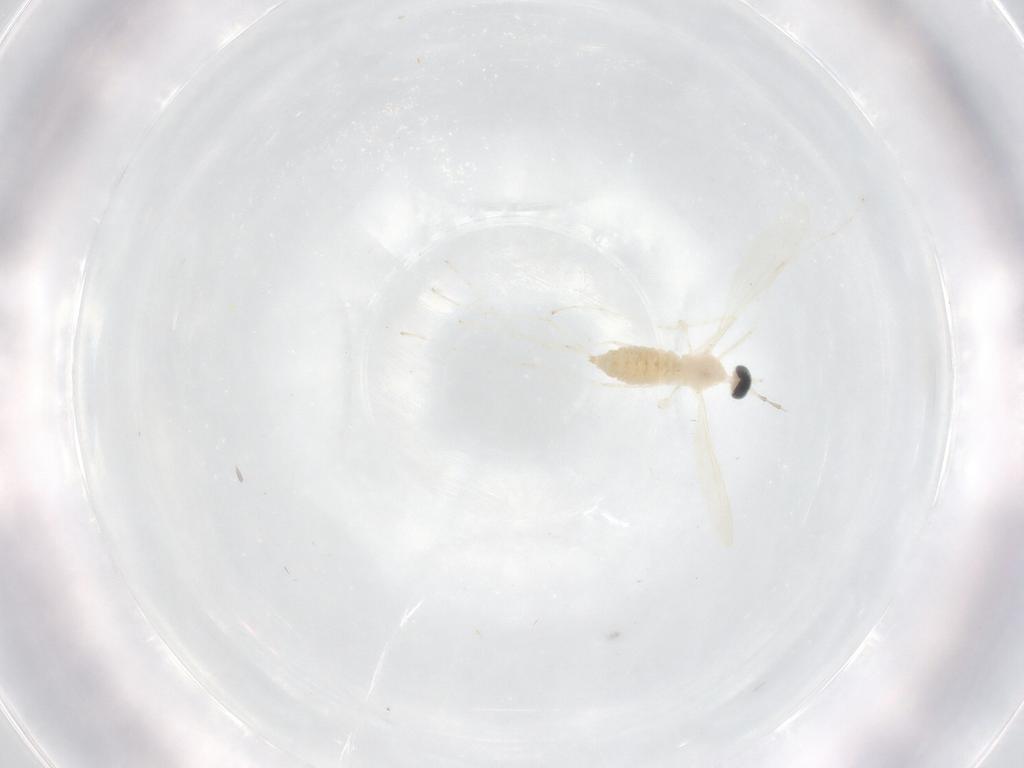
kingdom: Animalia
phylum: Arthropoda
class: Insecta
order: Diptera
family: Cecidomyiidae
